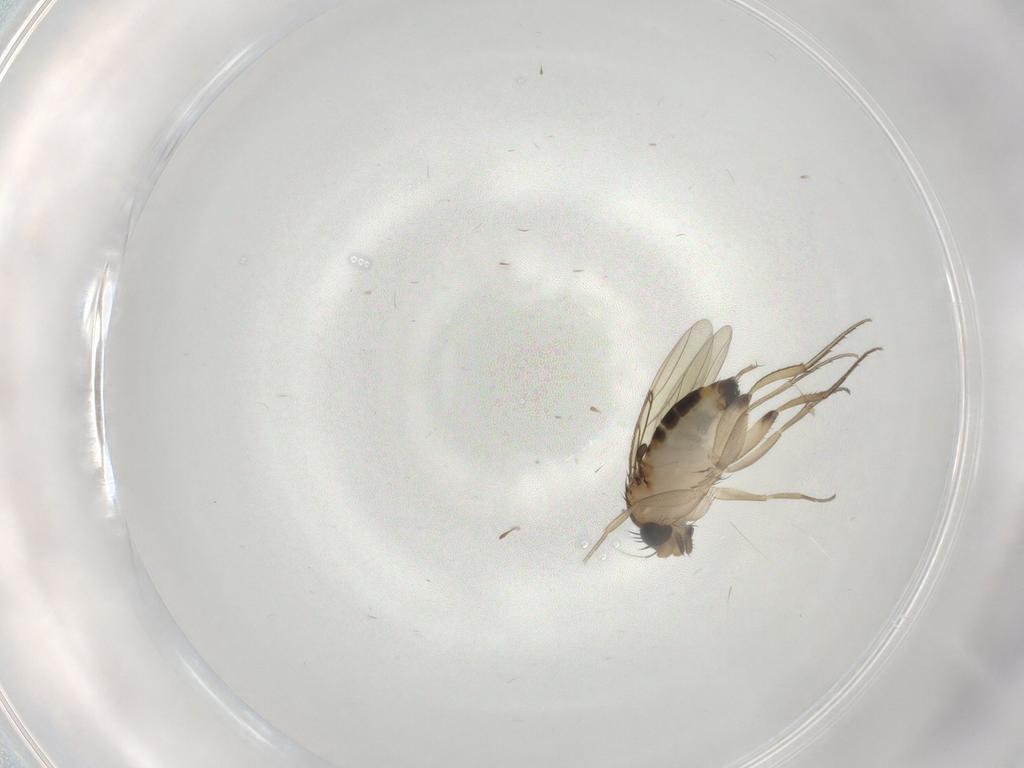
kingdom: Animalia
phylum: Arthropoda
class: Insecta
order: Diptera
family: Phoridae
